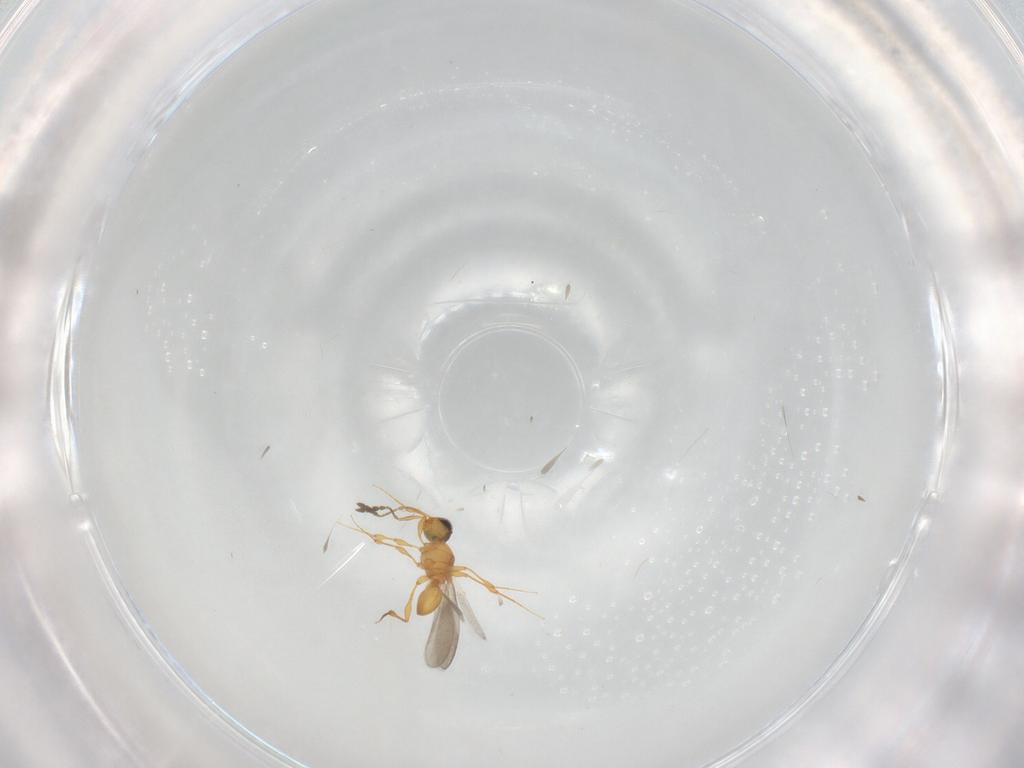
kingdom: Animalia
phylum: Arthropoda
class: Insecta
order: Hymenoptera
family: Platygastridae
